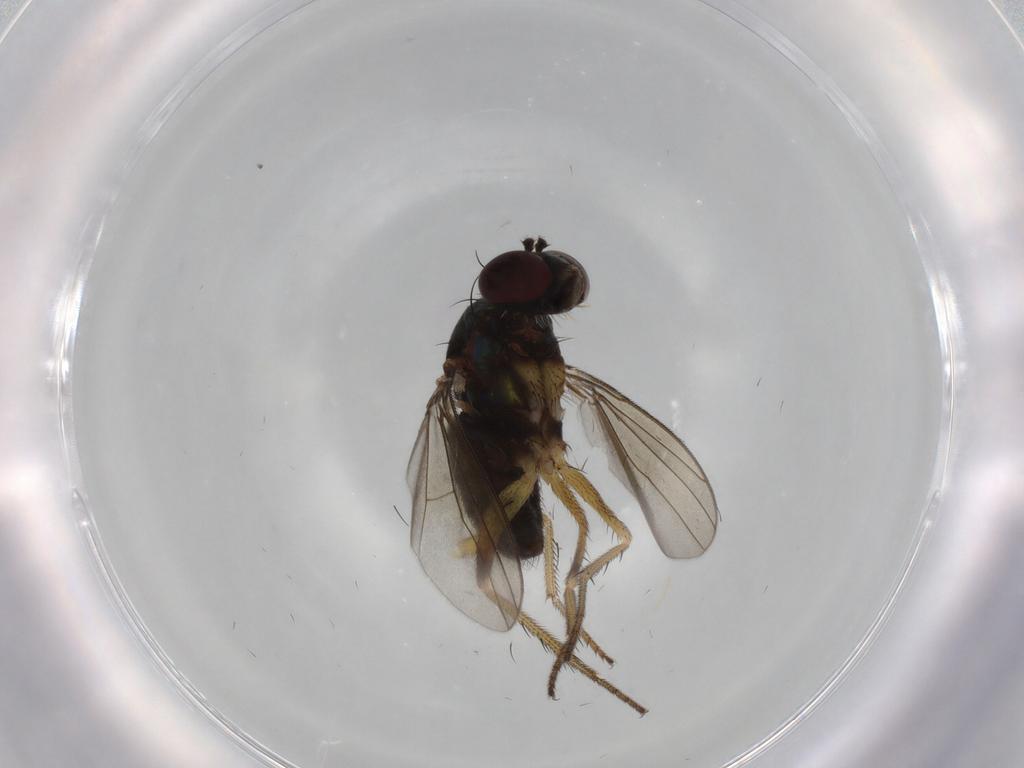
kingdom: Animalia
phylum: Arthropoda
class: Insecta
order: Diptera
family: Dolichopodidae
